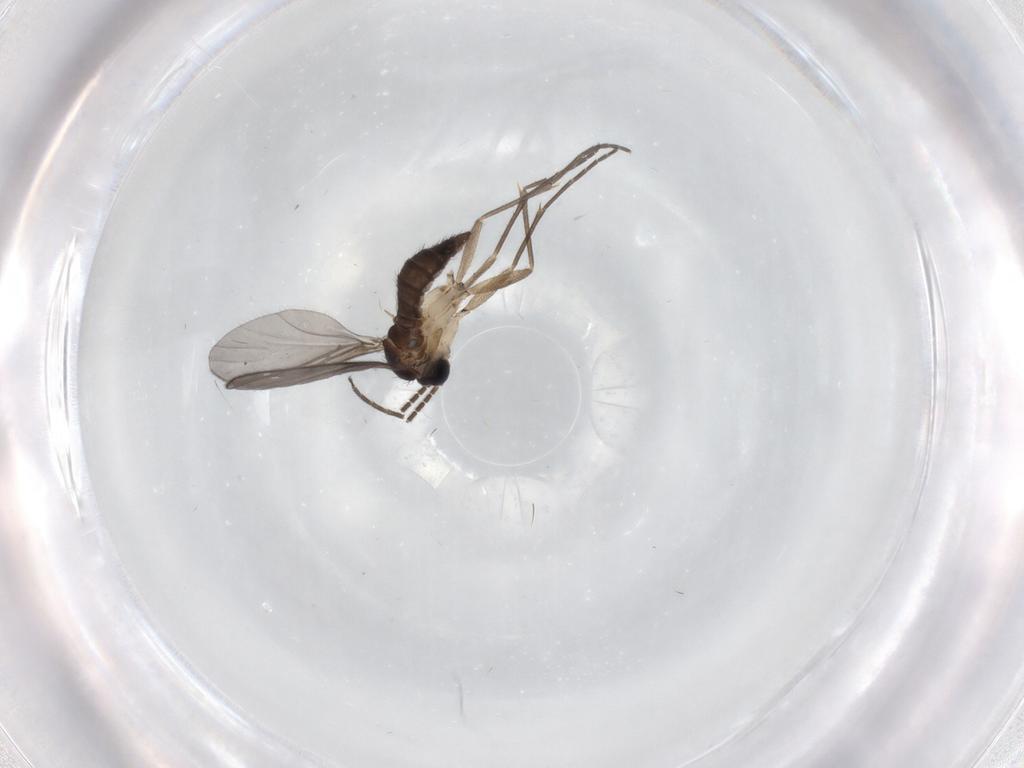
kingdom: Animalia
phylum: Arthropoda
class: Insecta
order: Diptera
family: Sciaridae
